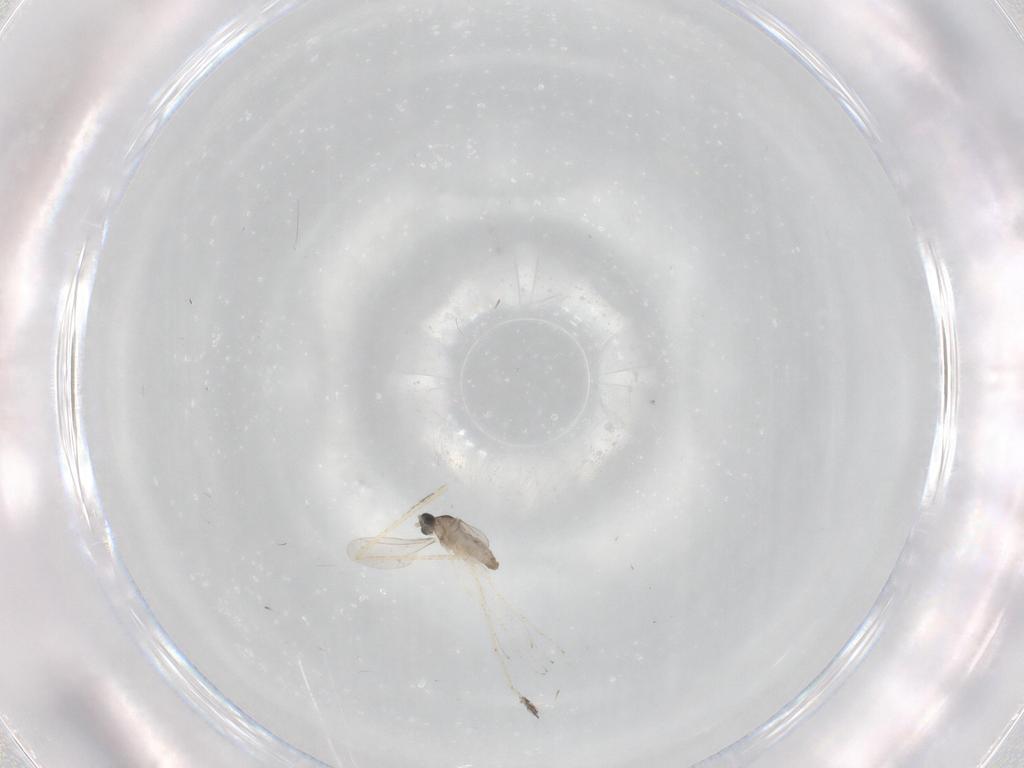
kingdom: Animalia
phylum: Arthropoda
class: Insecta
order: Diptera
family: Cecidomyiidae
